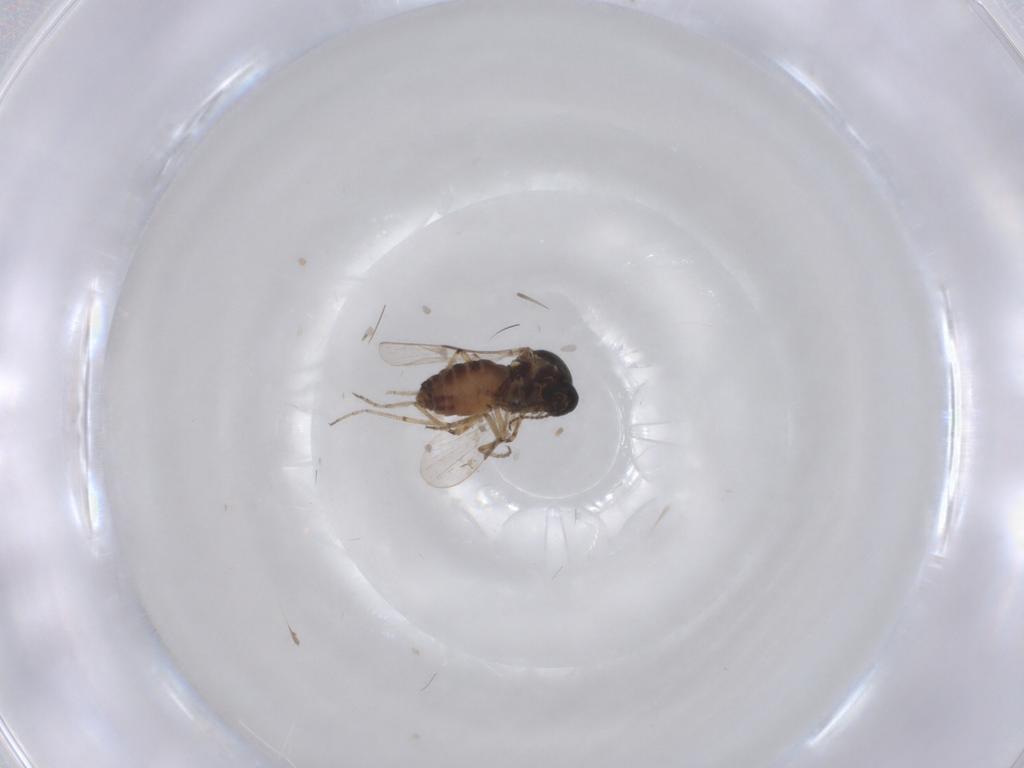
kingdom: Animalia
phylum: Arthropoda
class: Insecta
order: Diptera
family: Ceratopogonidae
